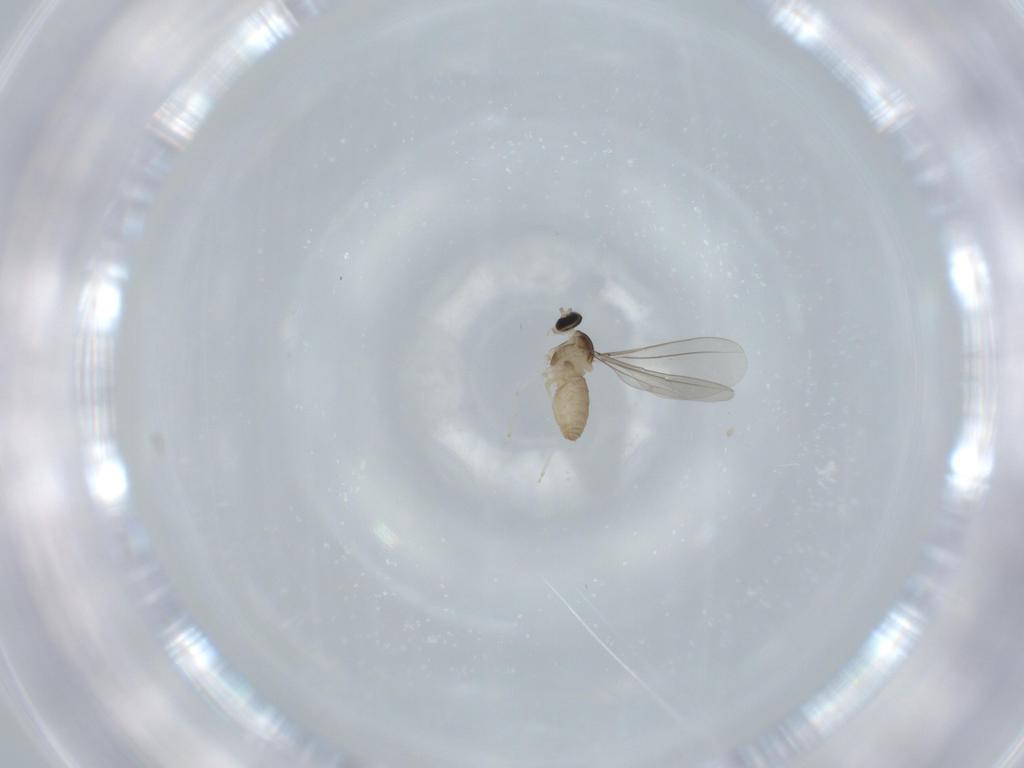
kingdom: Animalia
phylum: Arthropoda
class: Insecta
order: Diptera
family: Cecidomyiidae
